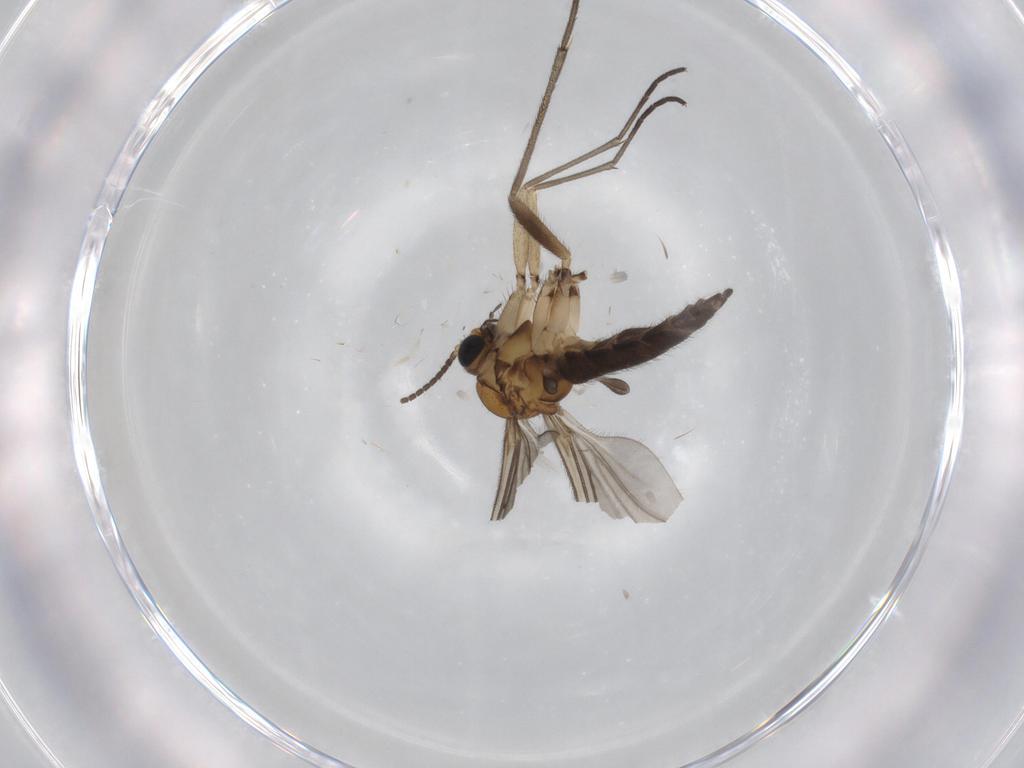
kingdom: Animalia
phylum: Arthropoda
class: Insecta
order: Diptera
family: Sciaridae
